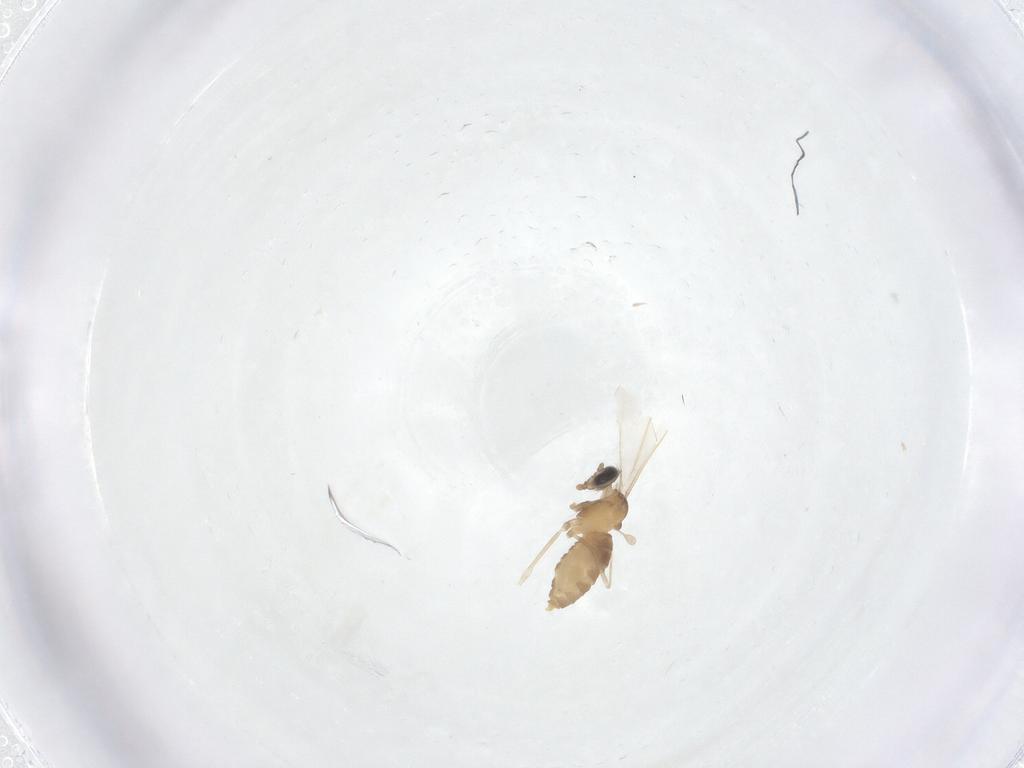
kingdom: Animalia
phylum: Arthropoda
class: Insecta
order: Diptera
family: Cecidomyiidae
